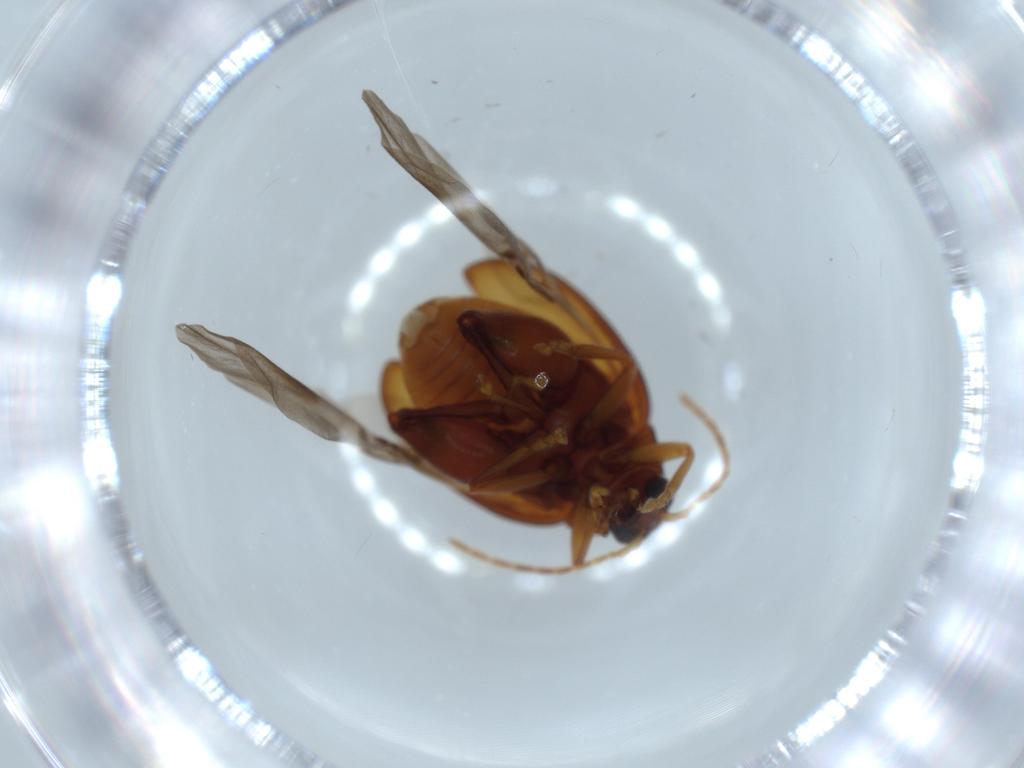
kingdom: Animalia
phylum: Arthropoda
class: Insecta
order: Coleoptera
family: Chrysomelidae
